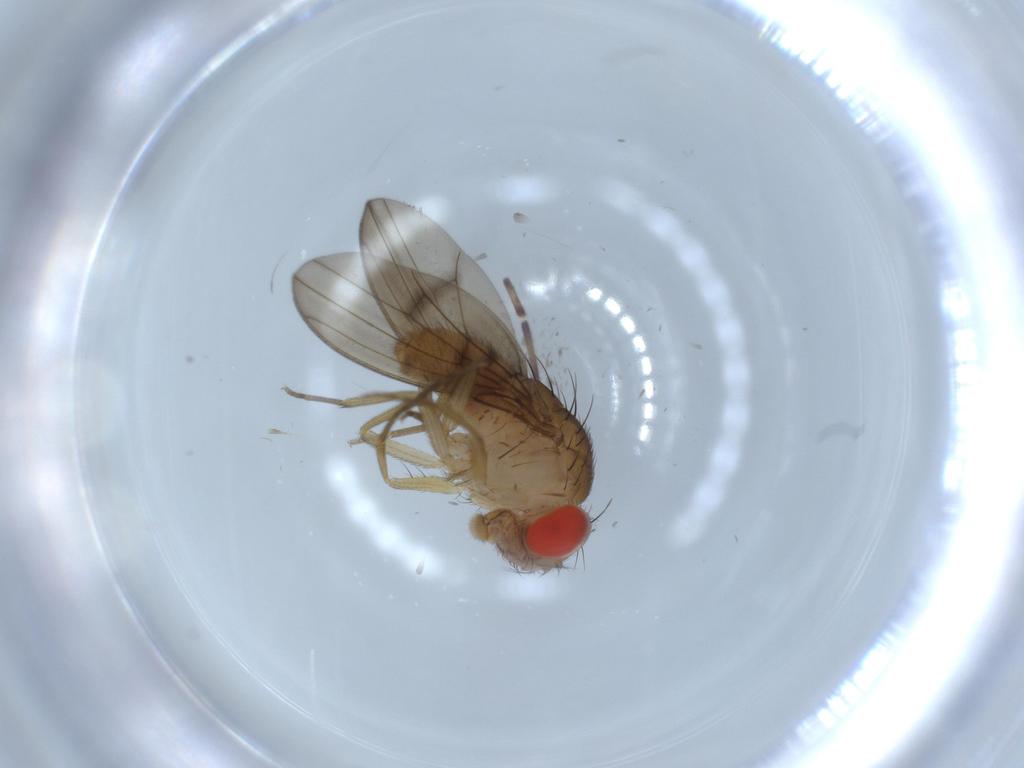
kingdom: Animalia
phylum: Arthropoda
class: Insecta
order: Diptera
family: Drosophilidae
